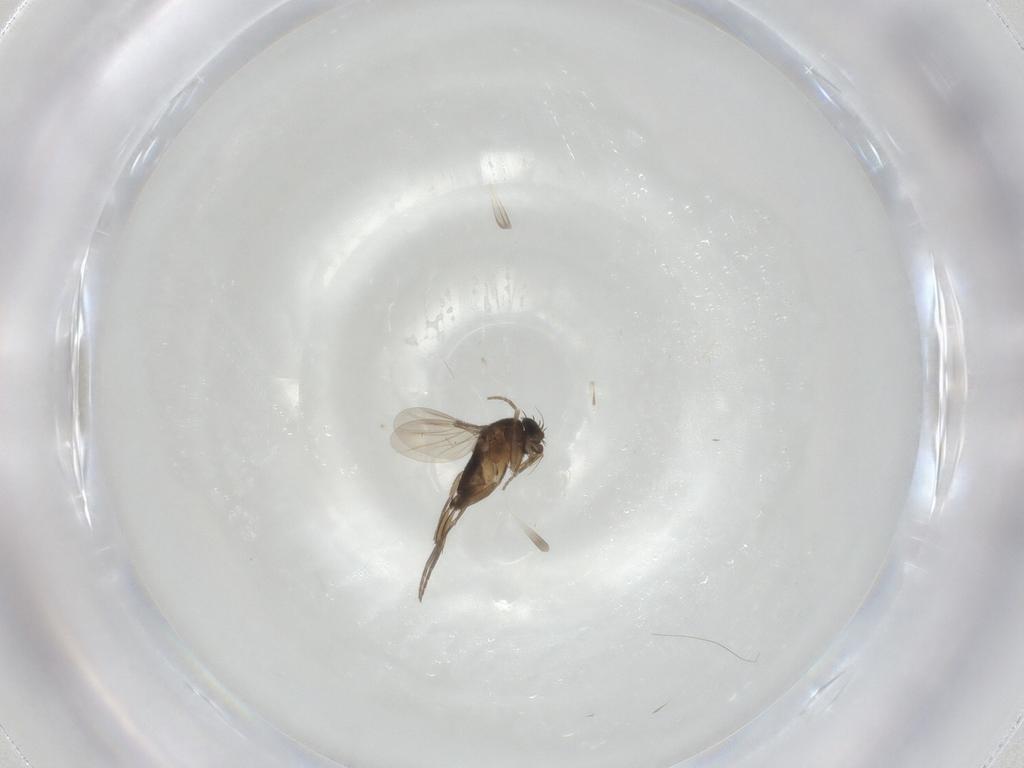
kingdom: Animalia
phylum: Arthropoda
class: Insecta
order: Diptera
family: Phoridae
